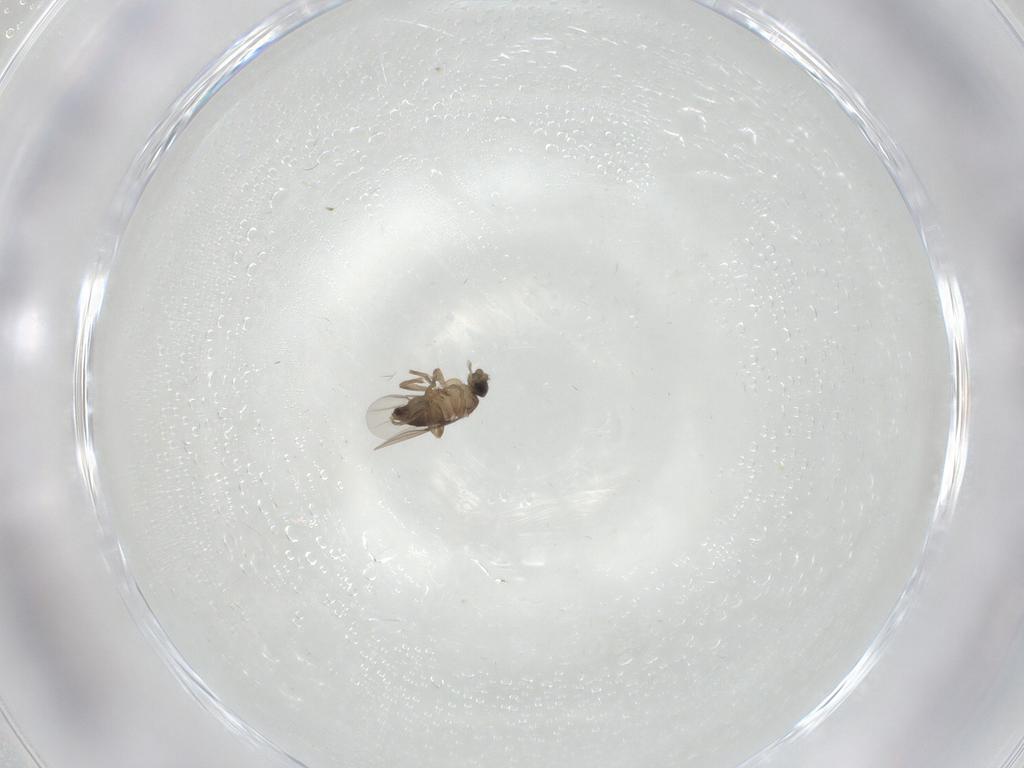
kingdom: Animalia
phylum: Arthropoda
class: Insecta
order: Diptera
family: Phoridae
